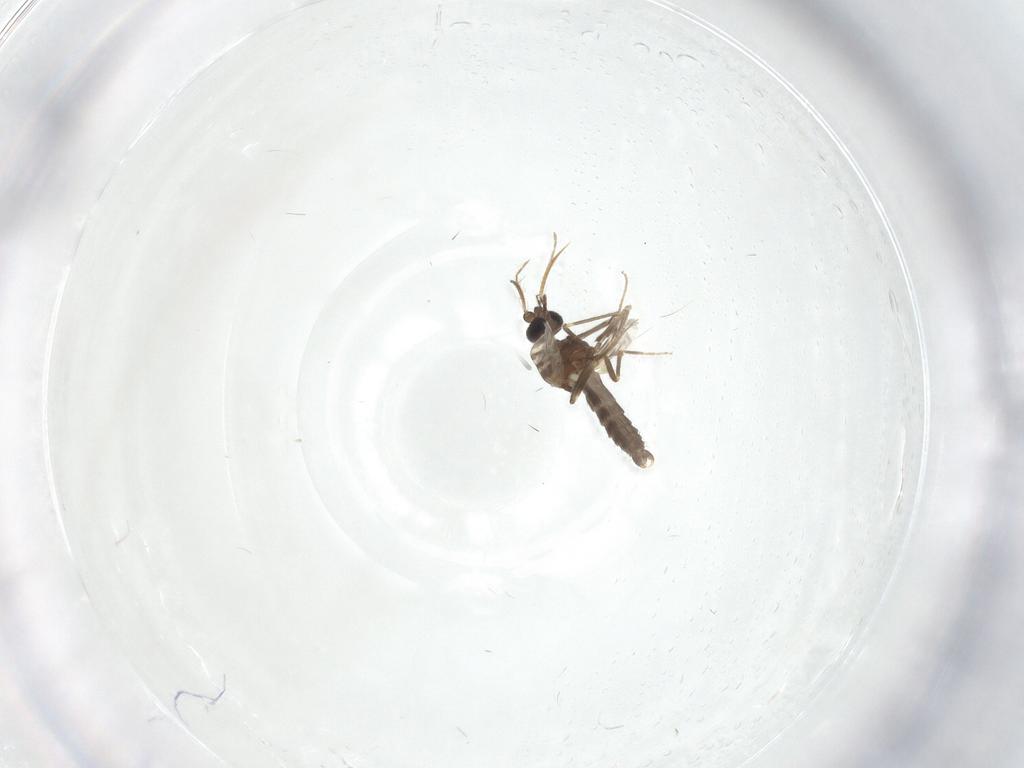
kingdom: Animalia
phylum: Arthropoda
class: Insecta
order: Diptera
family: Ceratopogonidae
